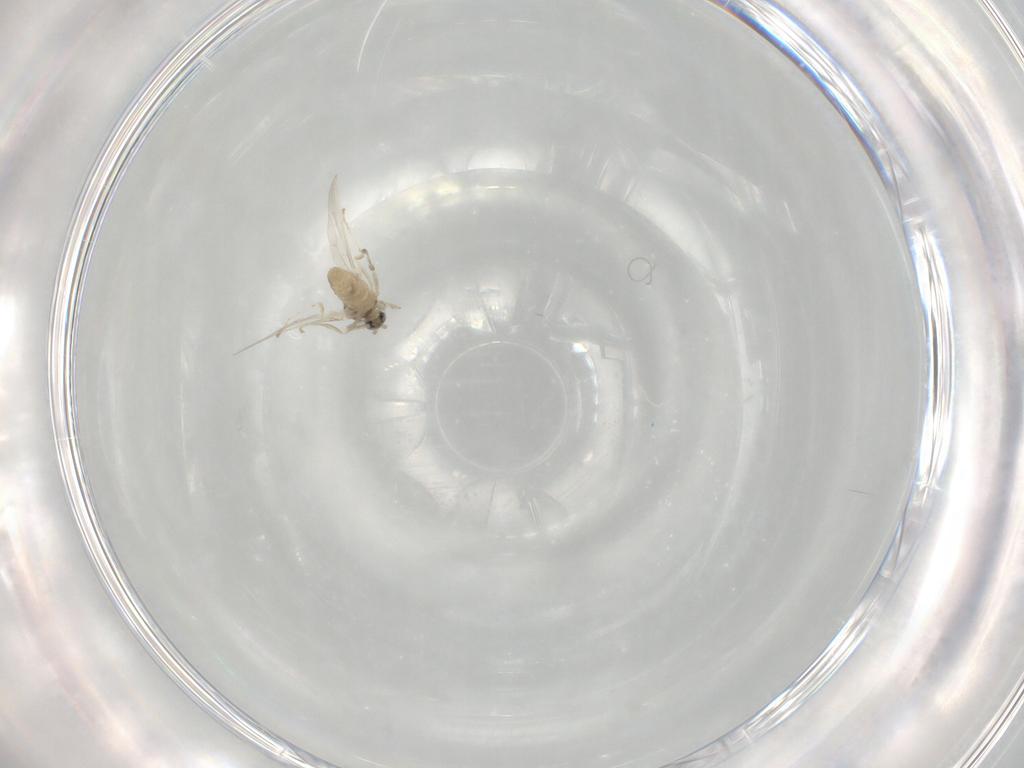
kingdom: Animalia
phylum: Arthropoda
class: Insecta
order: Diptera
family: Cecidomyiidae
